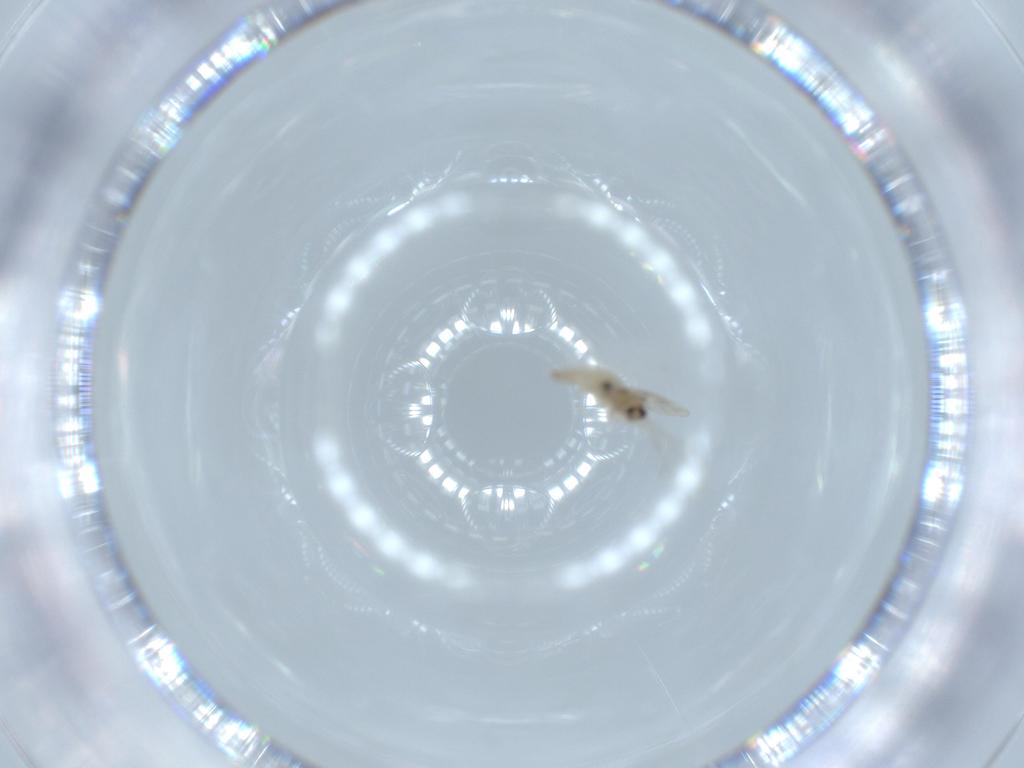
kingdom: Animalia
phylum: Arthropoda
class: Insecta
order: Diptera
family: Cecidomyiidae
